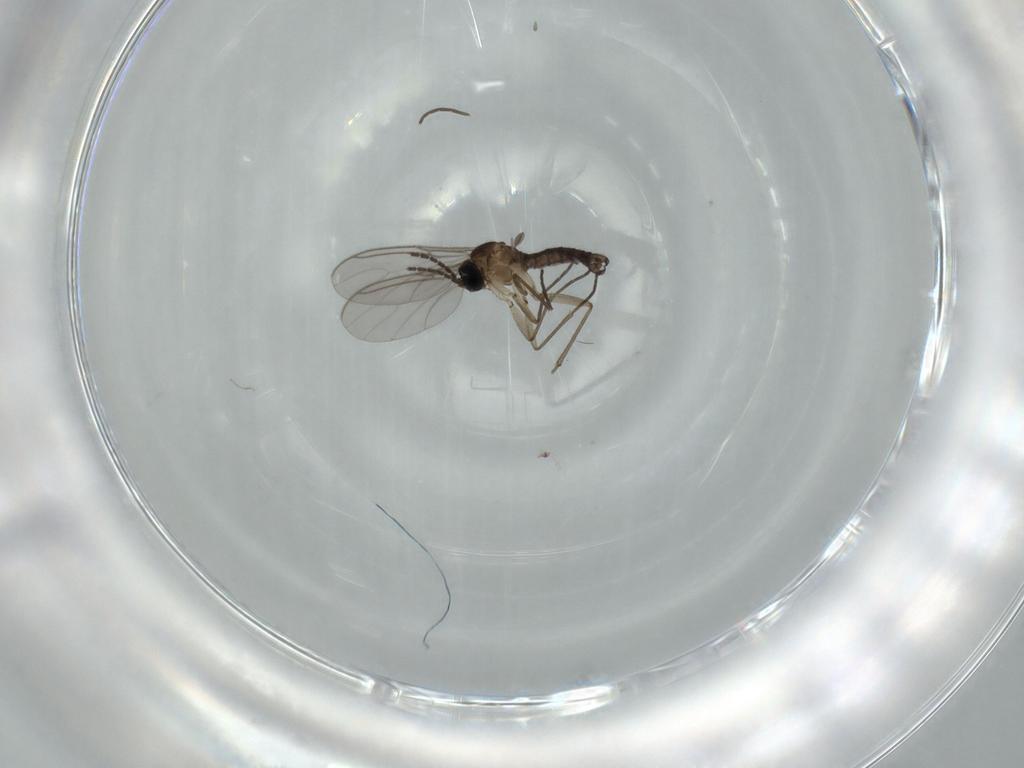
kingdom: Animalia
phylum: Arthropoda
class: Insecta
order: Diptera
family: Sciaridae
